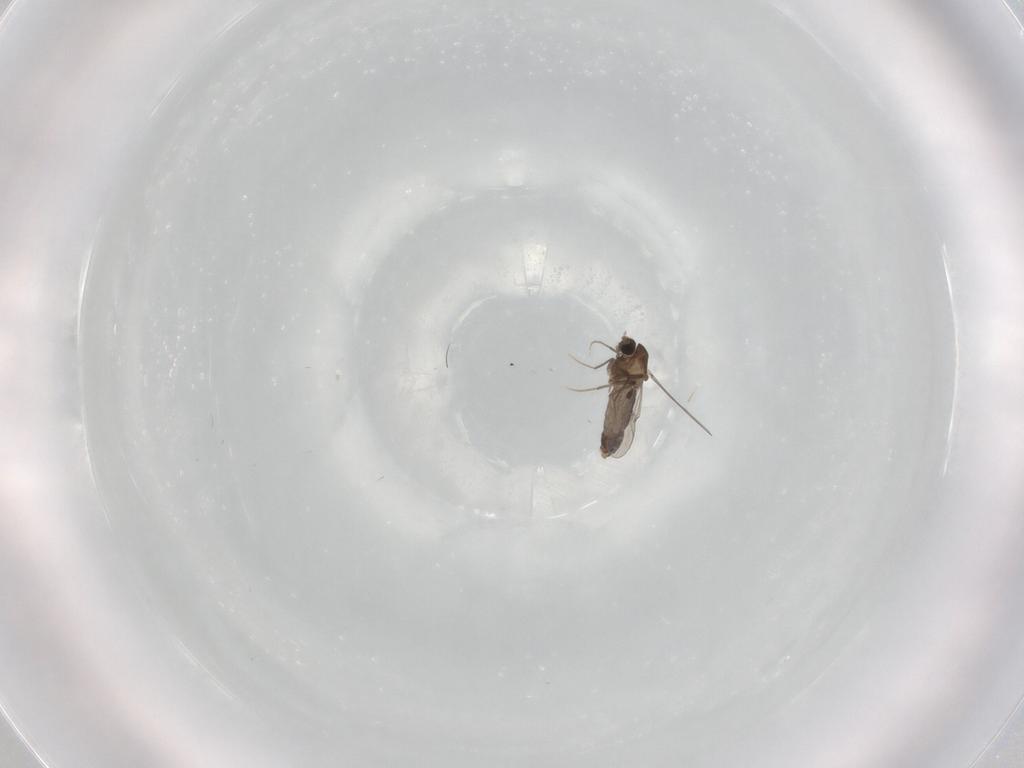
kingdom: Animalia
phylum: Arthropoda
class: Insecta
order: Diptera
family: Chironomidae
